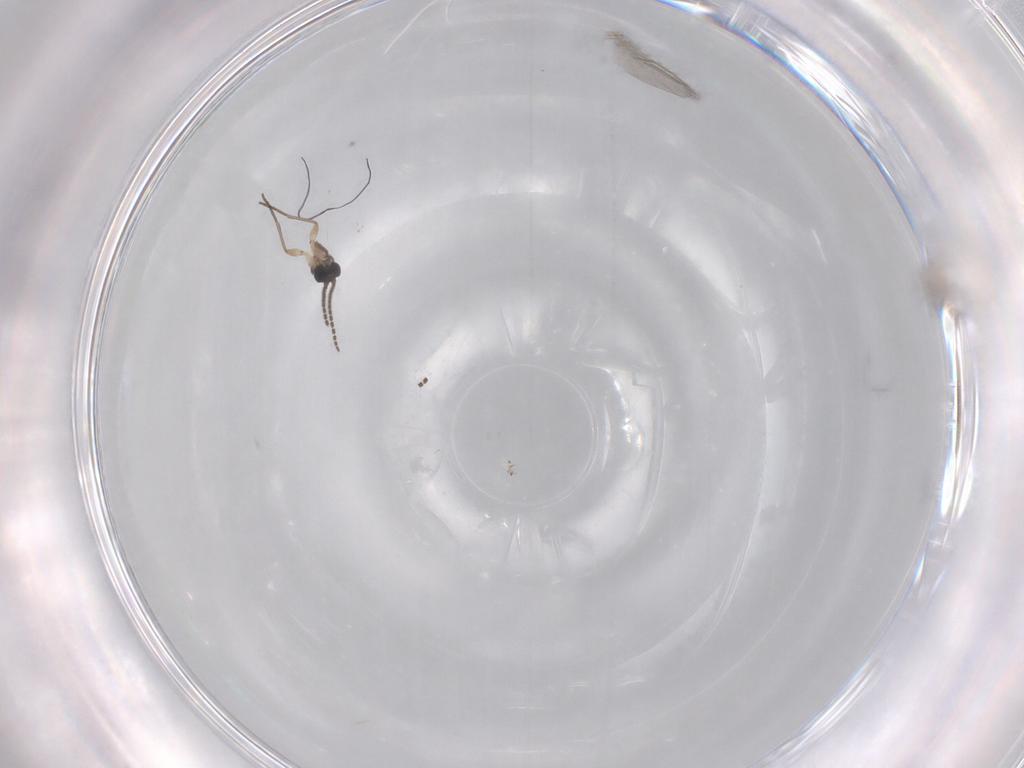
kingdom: Animalia
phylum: Arthropoda
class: Insecta
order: Diptera
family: Sciaridae
